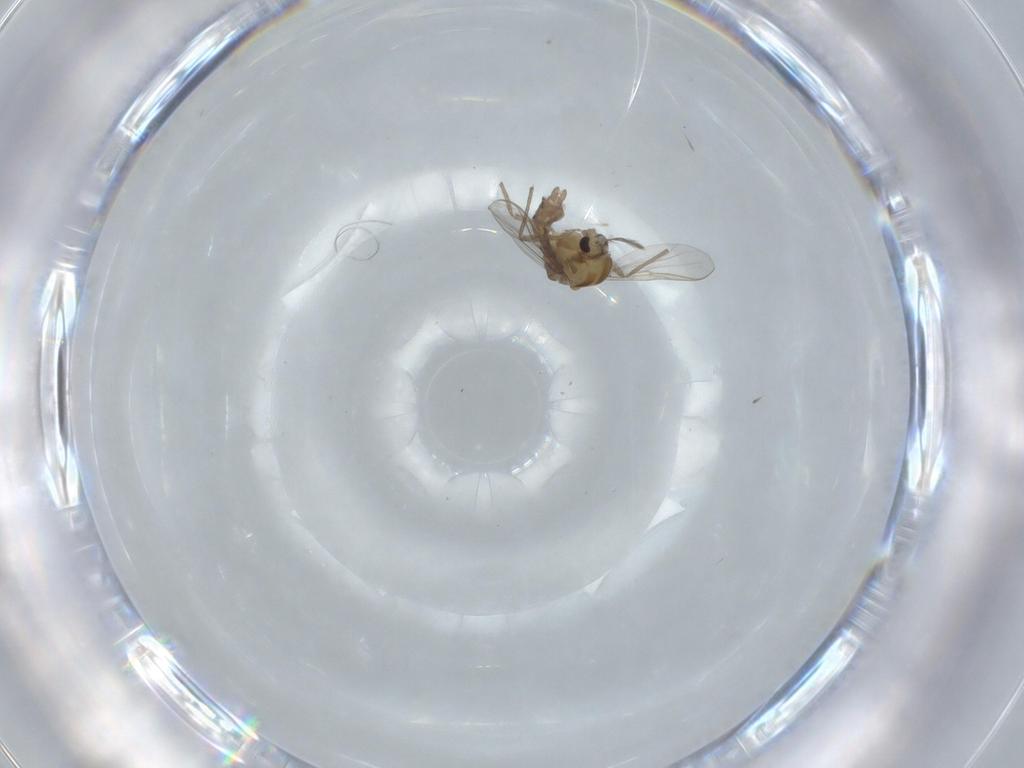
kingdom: Animalia
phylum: Arthropoda
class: Insecta
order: Diptera
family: Chironomidae
